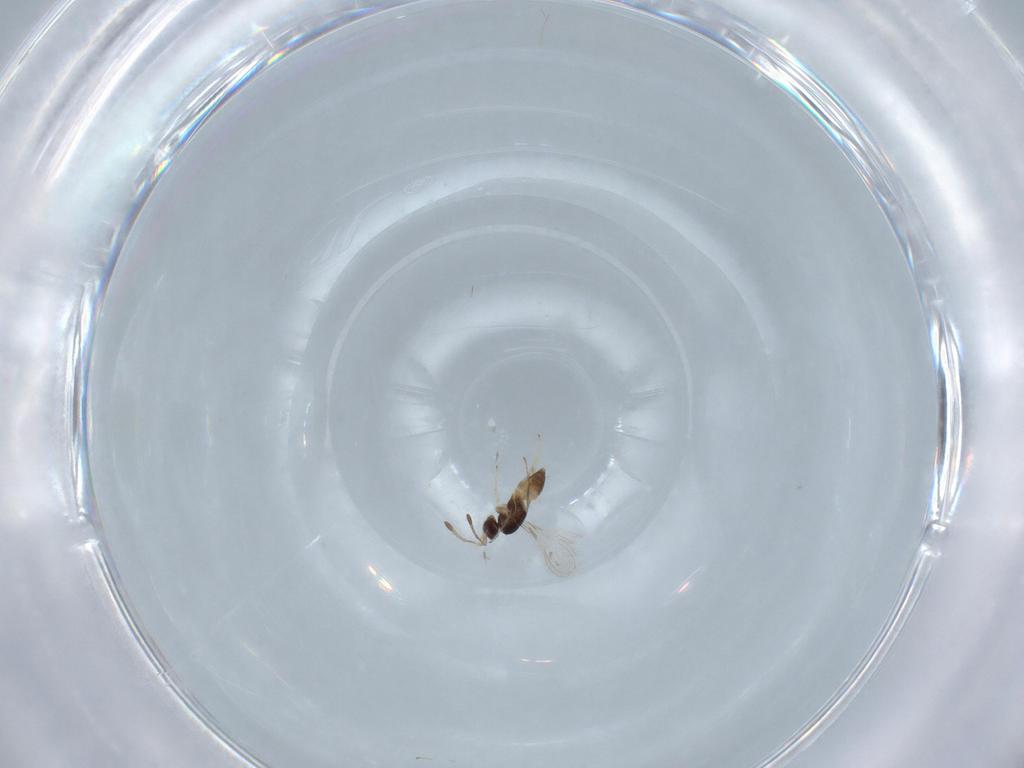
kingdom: Animalia
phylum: Arthropoda
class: Insecta
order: Hymenoptera
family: Mymaridae
